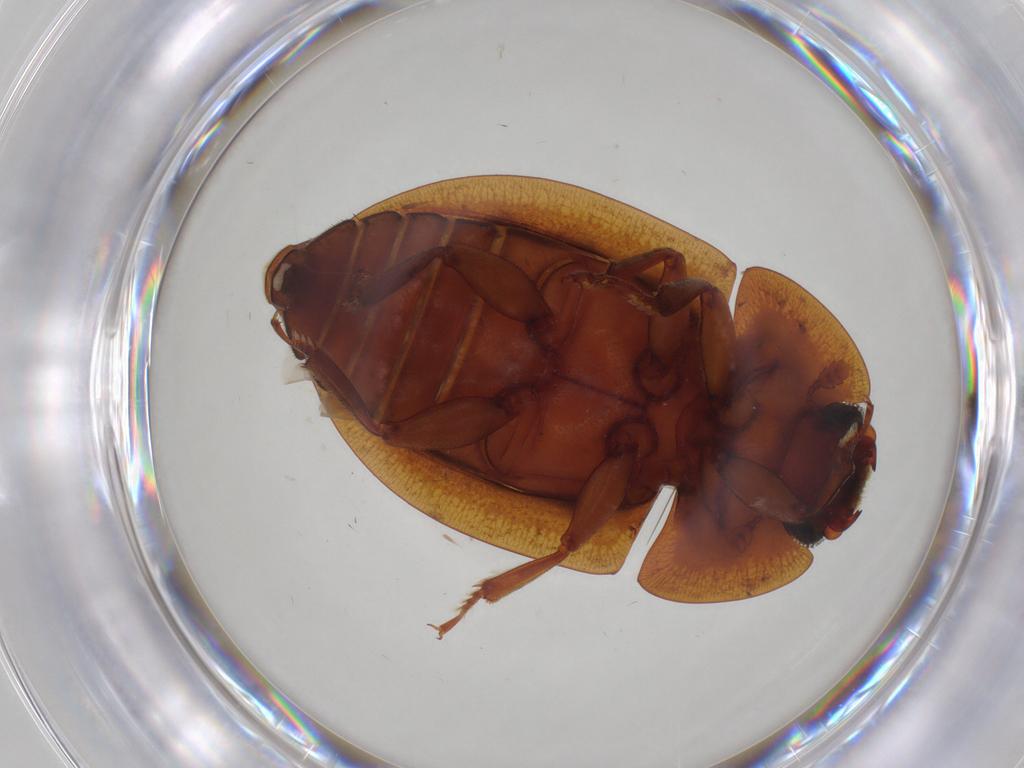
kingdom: Animalia
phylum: Arthropoda
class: Insecta
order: Coleoptera
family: Nitidulidae
